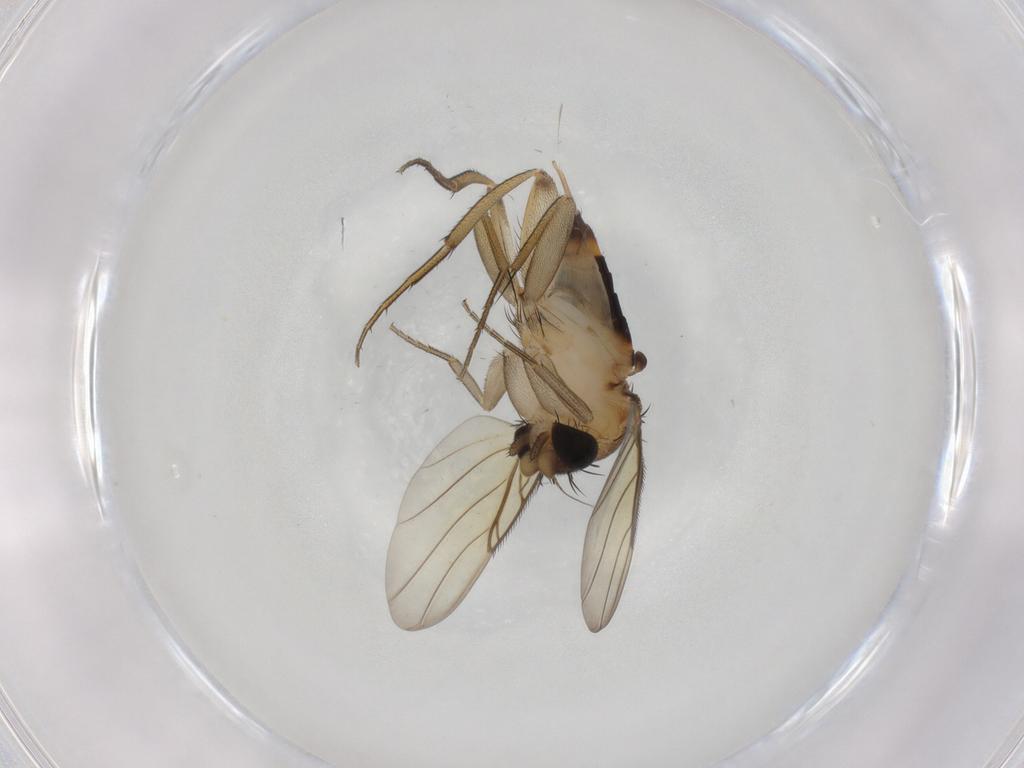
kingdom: Animalia
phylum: Arthropoda
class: Insecta
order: Diptera
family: Phoridae
